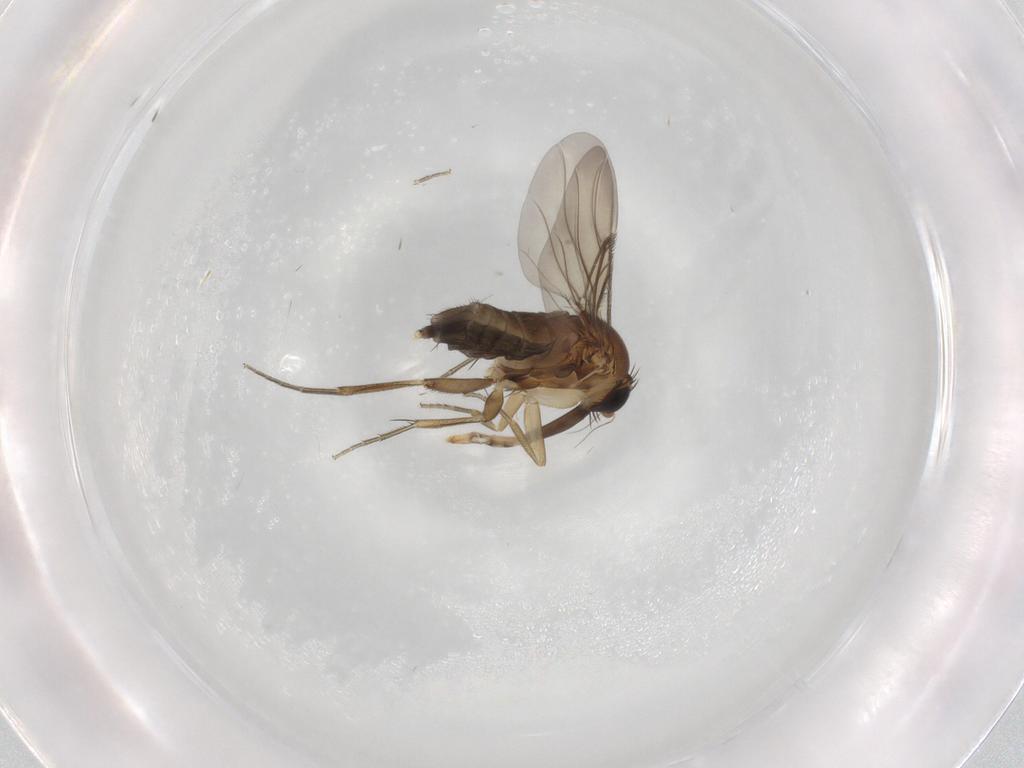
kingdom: Animalia
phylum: Arthropoda
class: Insecta
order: Diptera
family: Phoridae
